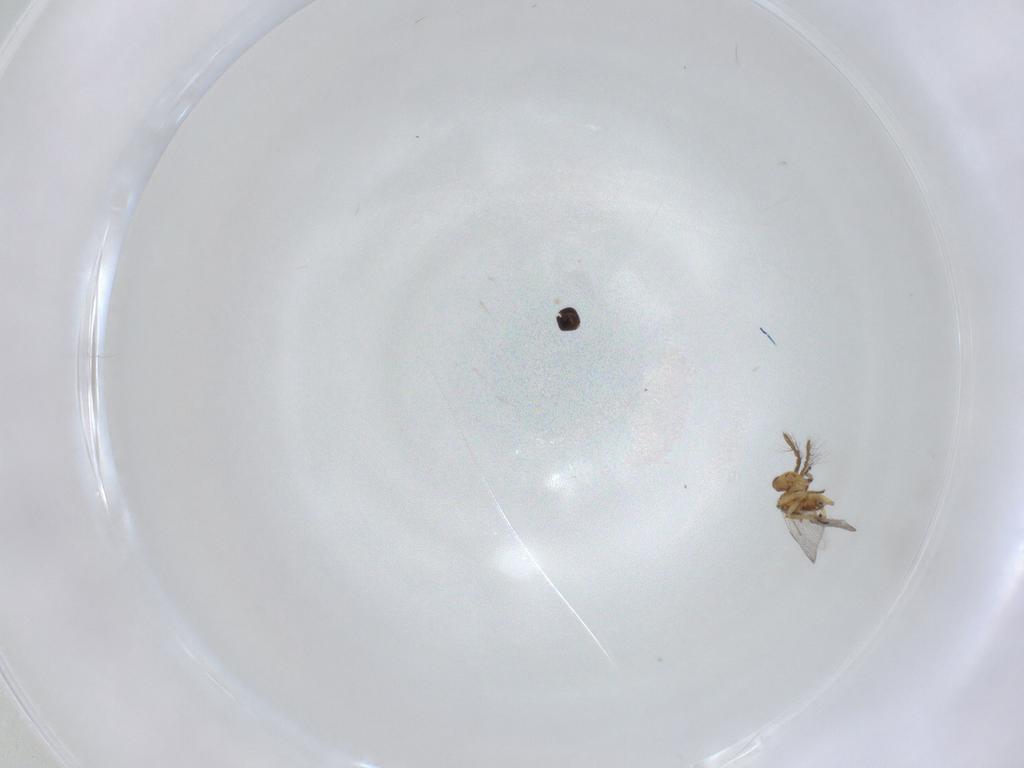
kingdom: Animalia
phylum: Arthropoda
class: Insecta
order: Hymenoptera
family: Eulophidae
